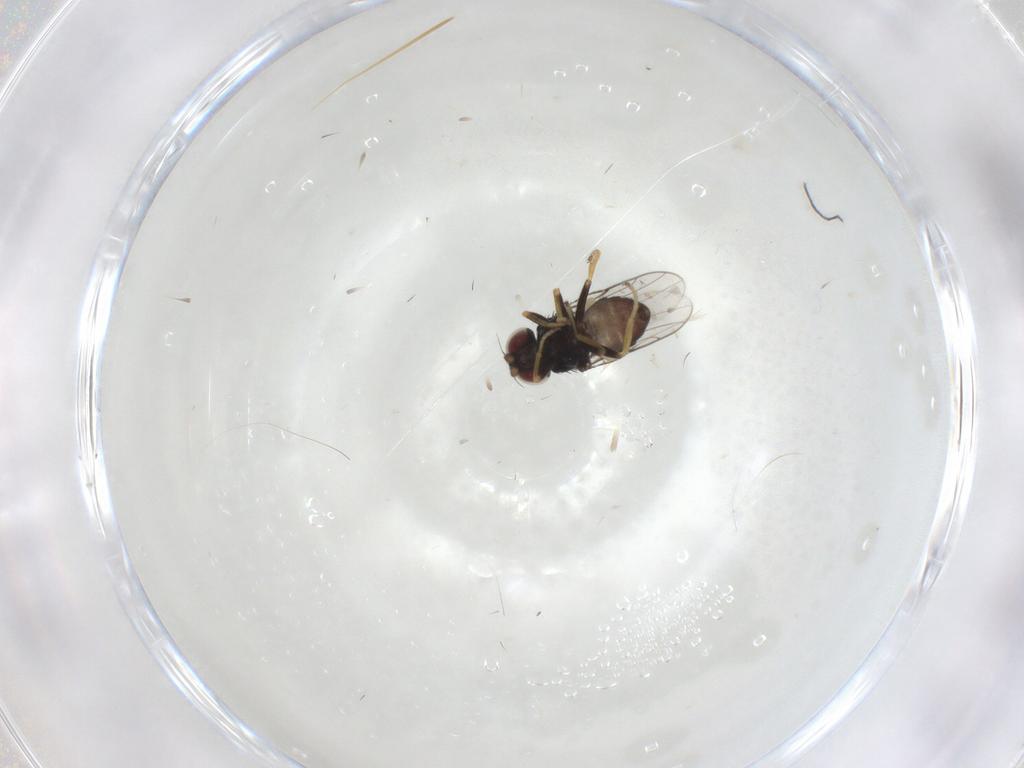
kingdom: Animalia
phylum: Arthropoda
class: Insecta
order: Diptera
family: Chloropidae
